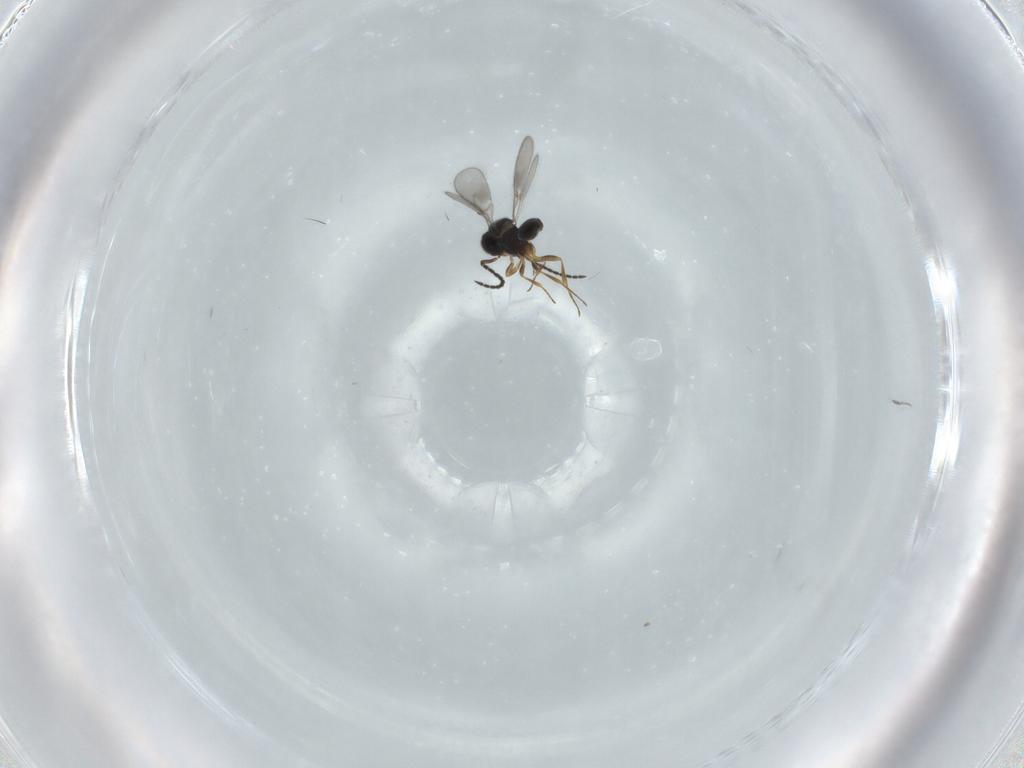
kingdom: Animalia
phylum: Arthropoda
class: Insecta
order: Hymenoptera
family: Scelionidae
